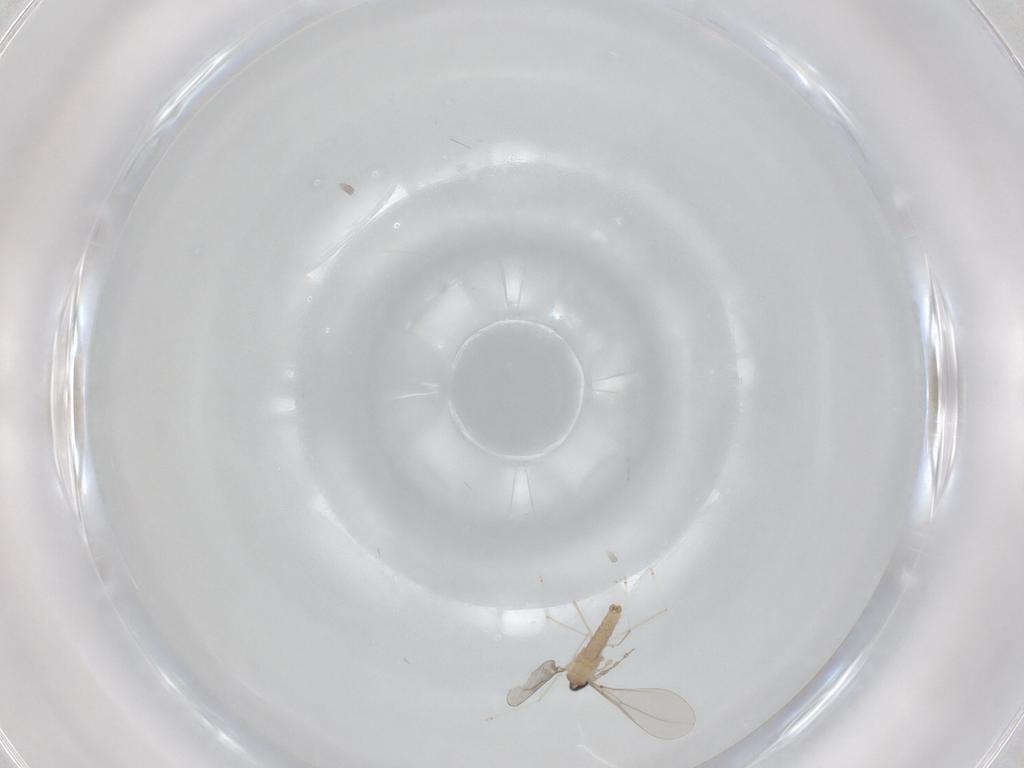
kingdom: Animalia
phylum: Arthropoda
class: Insecta
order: Diptera
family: Cecidomyiidae
